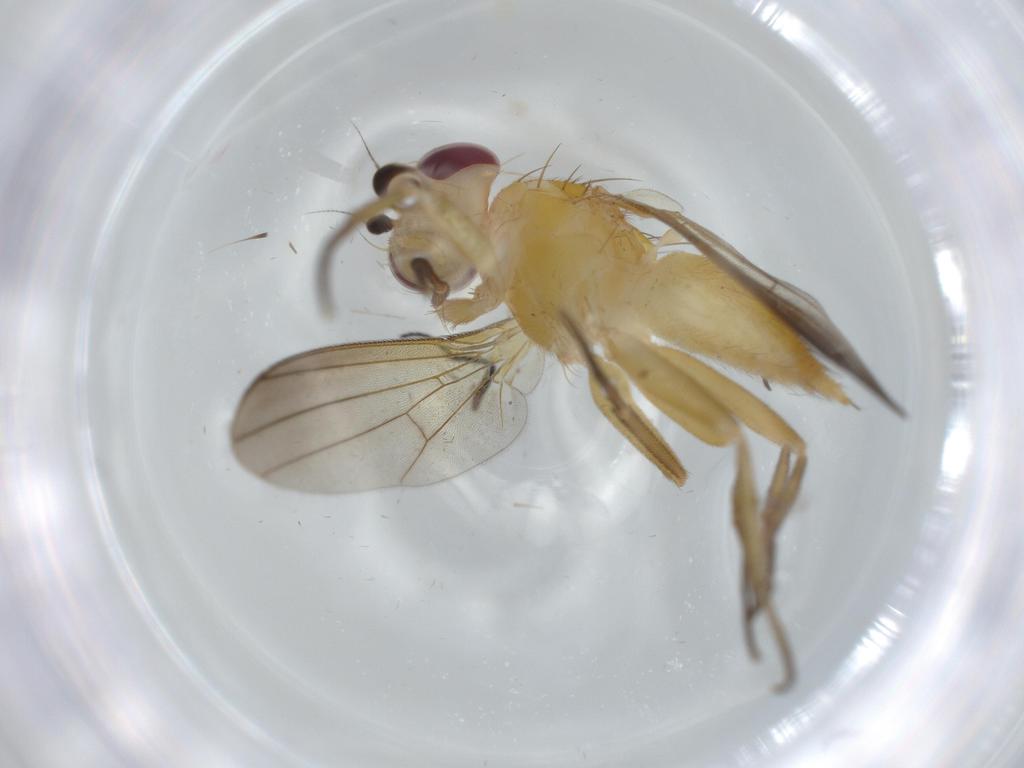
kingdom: Animalia
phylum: Arthropoda
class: Insecta
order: Diptera
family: Clusiidae
